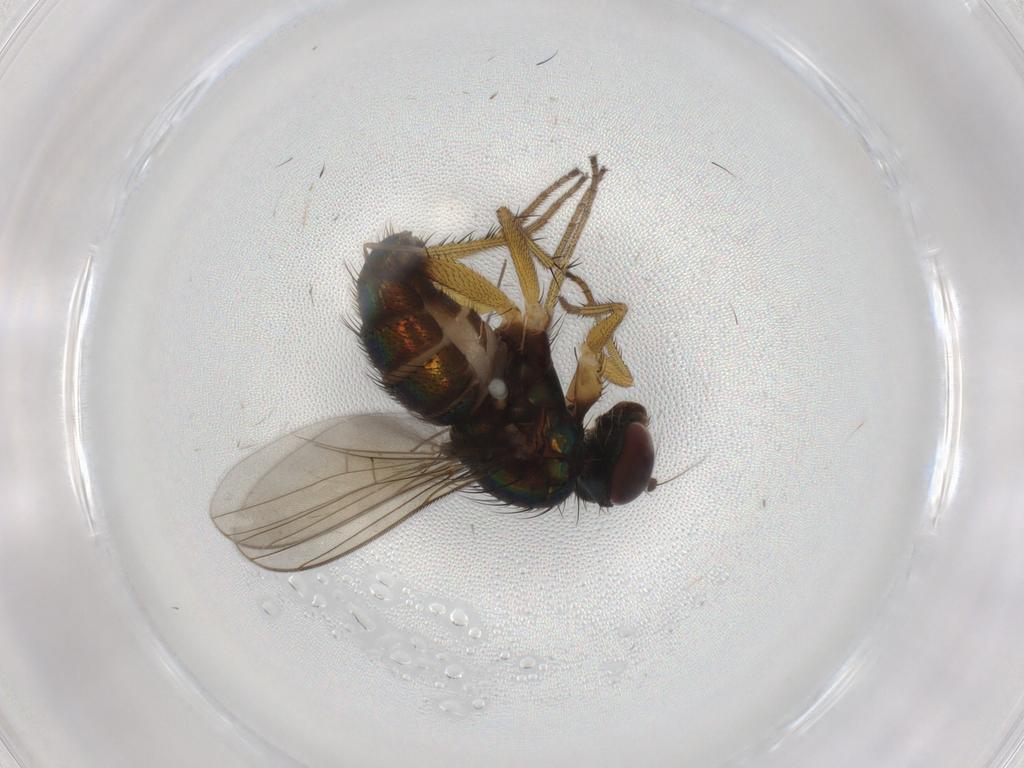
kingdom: Animalia
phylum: Arthropoda
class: Insecta
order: Diptera
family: Dolichopodidae
